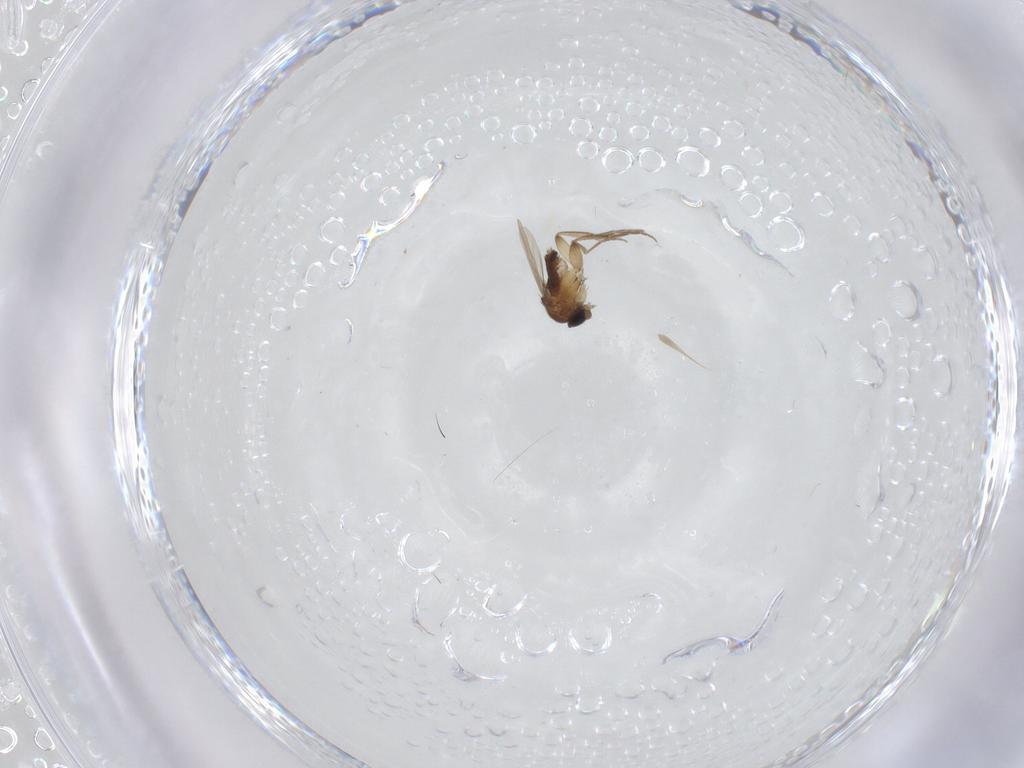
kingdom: Animalia
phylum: Arthropoda
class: Insecta
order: Diptera
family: Phoridae
